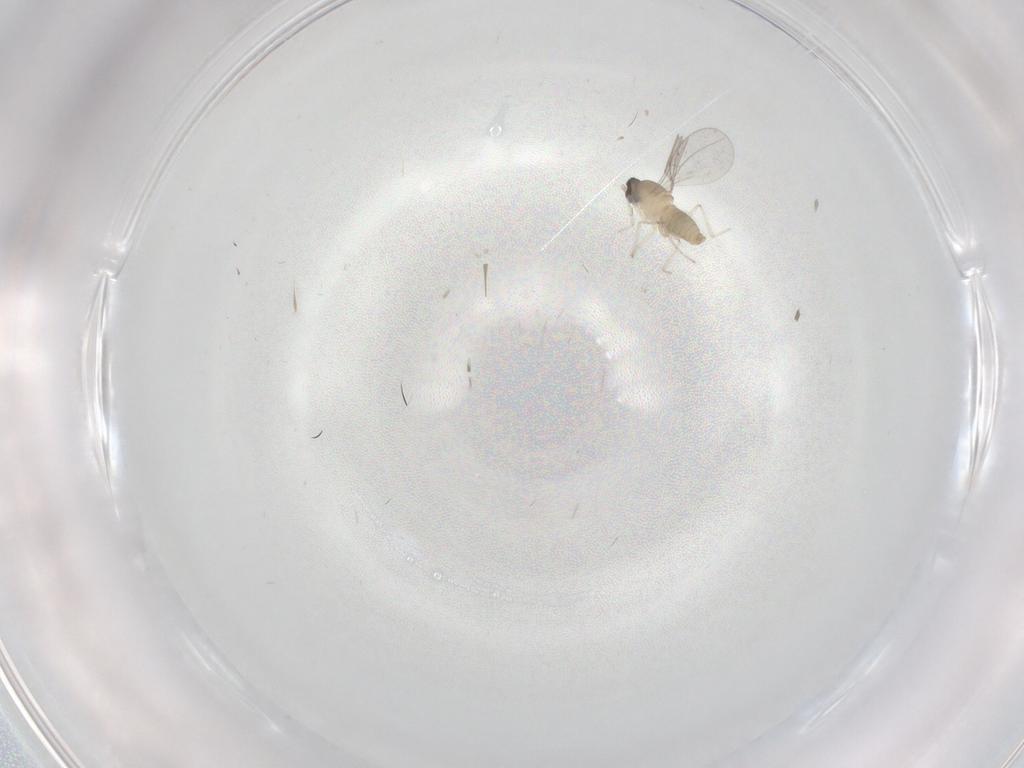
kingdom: Animalia
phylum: Arthropoda
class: Insecta
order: Diptera
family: Cecidomyiidae
